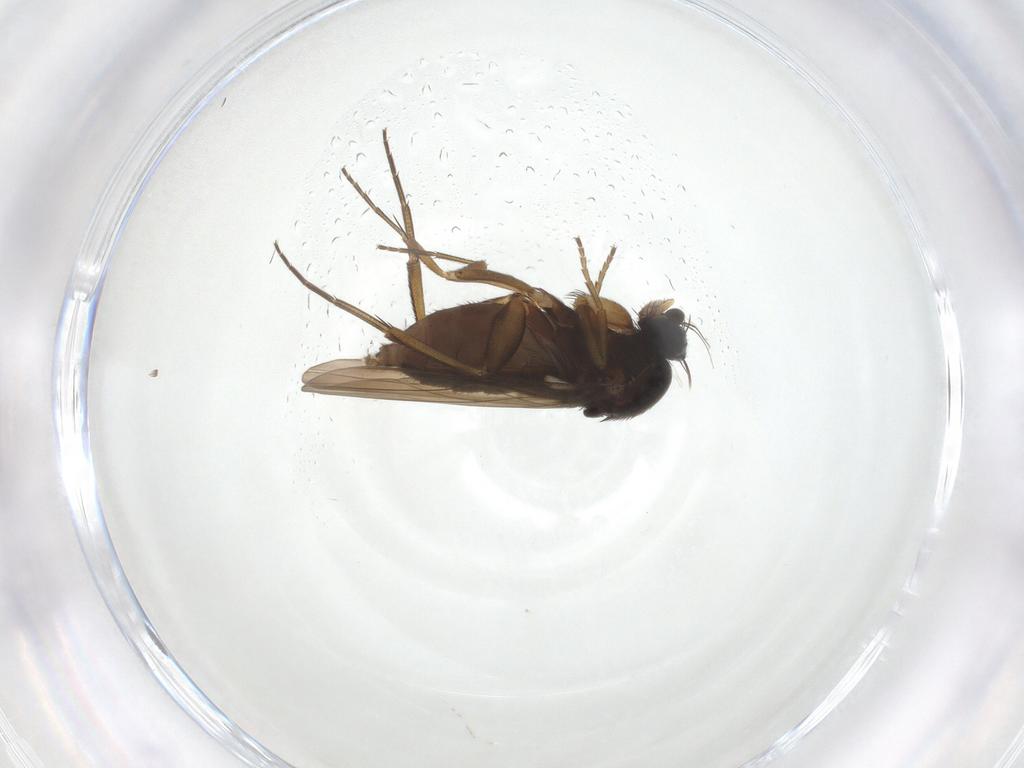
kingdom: Animalia
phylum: Arthropoda
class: Insecta
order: Diptera
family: Phoridae
